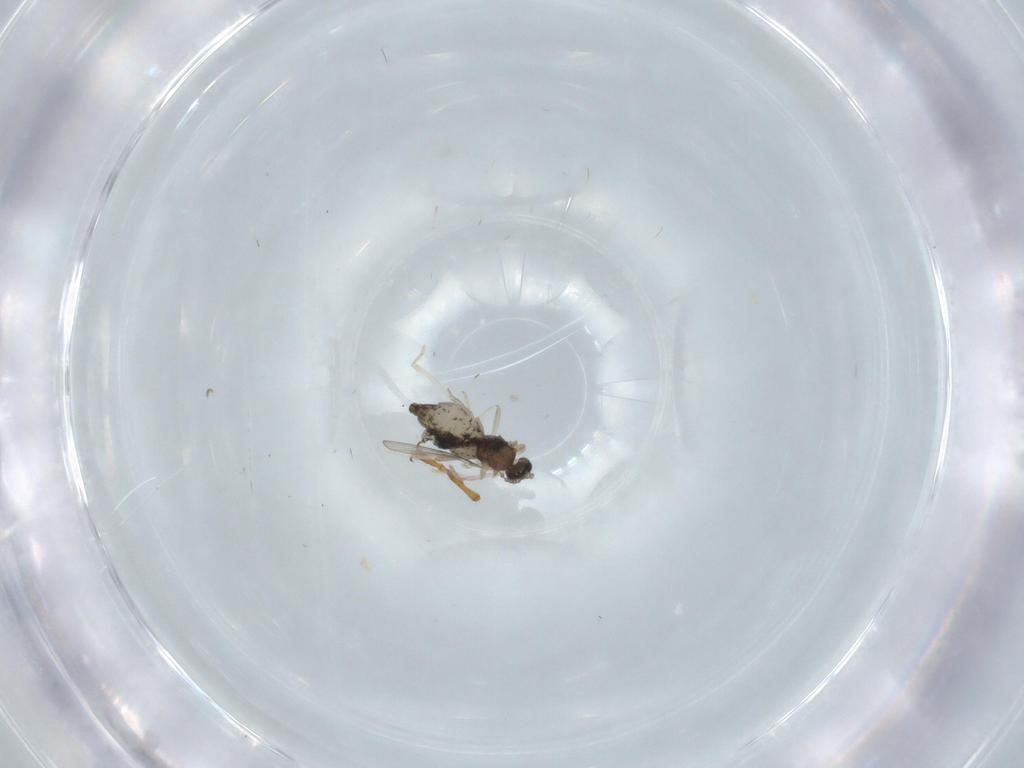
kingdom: Animalia
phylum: Arthropoda
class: Insecta
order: Diptera
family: Cecidomyiidae
